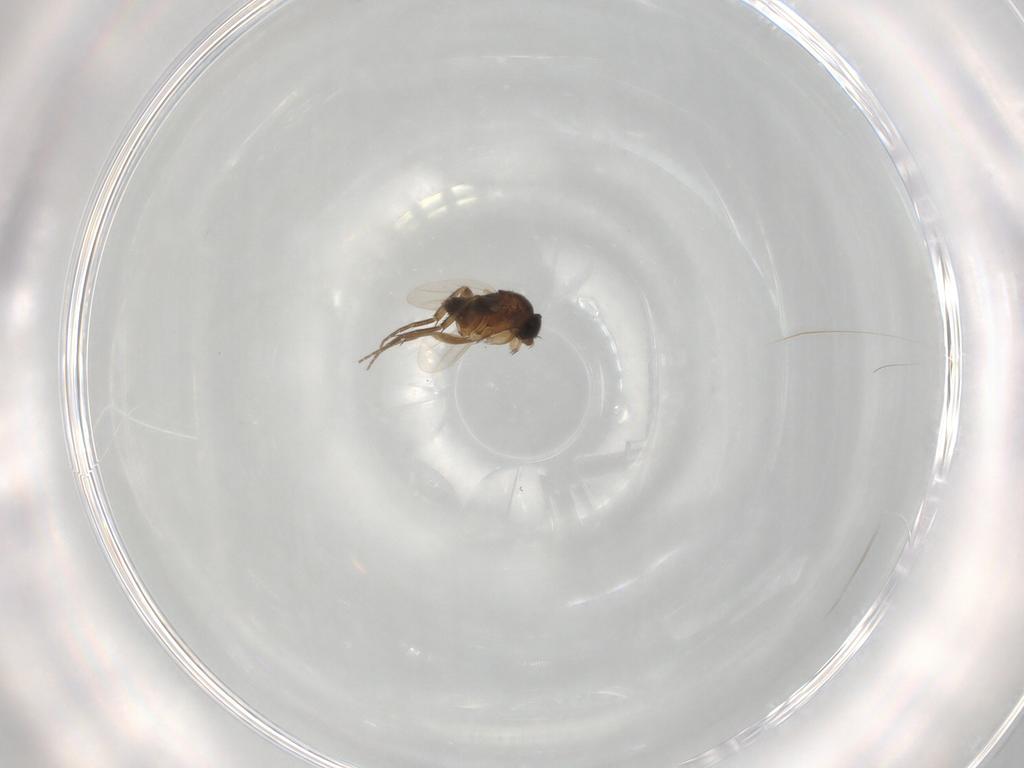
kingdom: Animalia
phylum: Arthropoda
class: Insecta
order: Diptera
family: Phoridae
